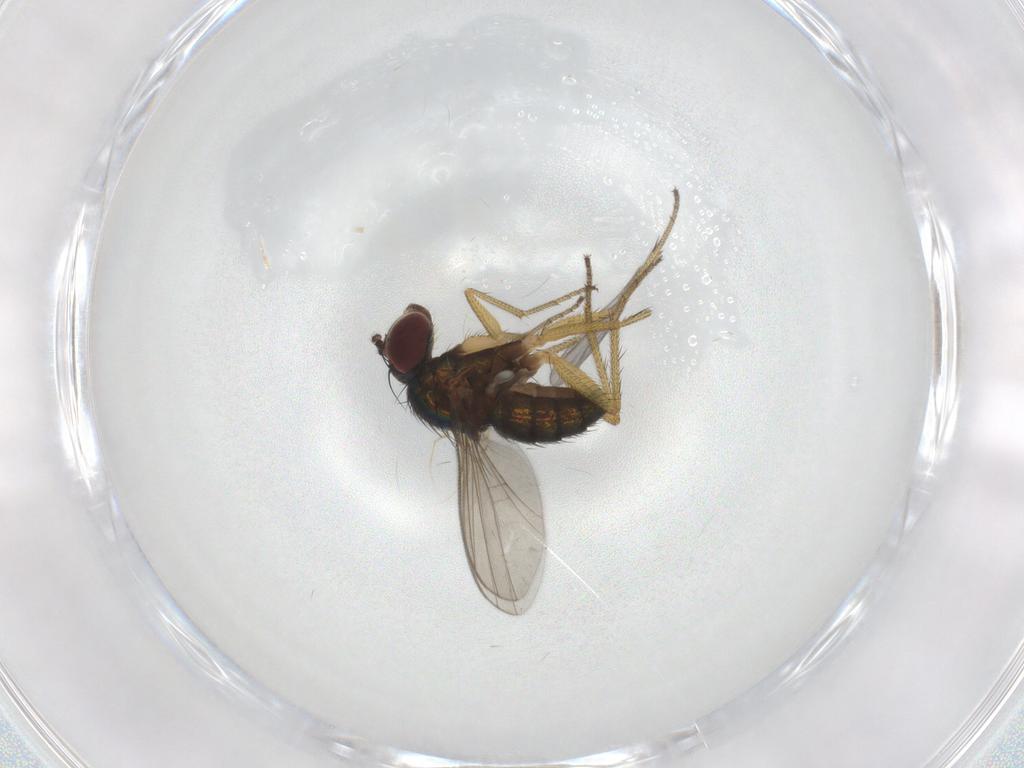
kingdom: Animalia
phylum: Arthropoda
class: Insecta
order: Diptera
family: Dolichopodidae
